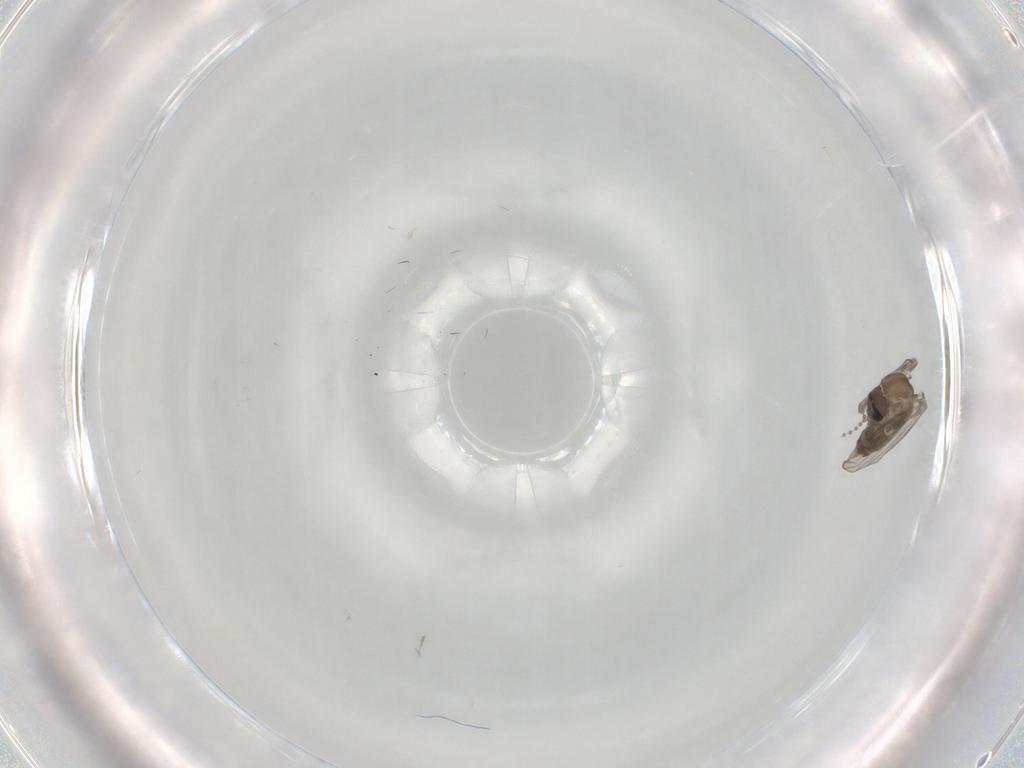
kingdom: Animalia
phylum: Arthropoda
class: Insecta
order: Diptera
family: Psychodidae
